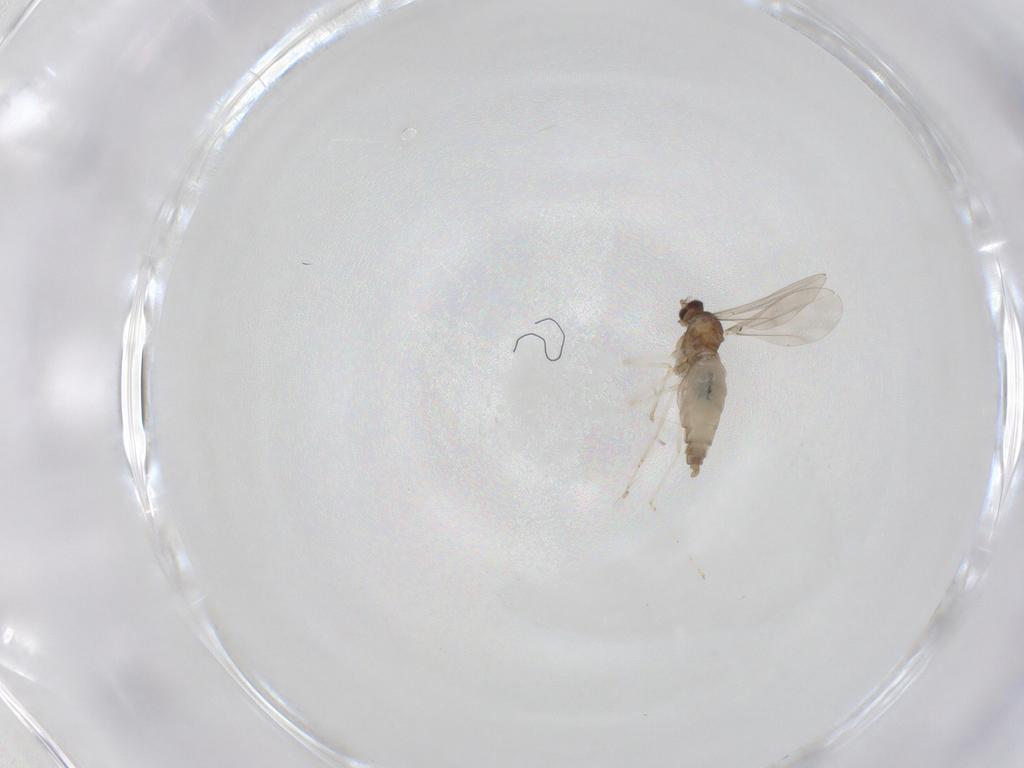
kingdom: Animalia
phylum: Arthropoda
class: Insecta
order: Diptera
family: Cecidomyiidae
